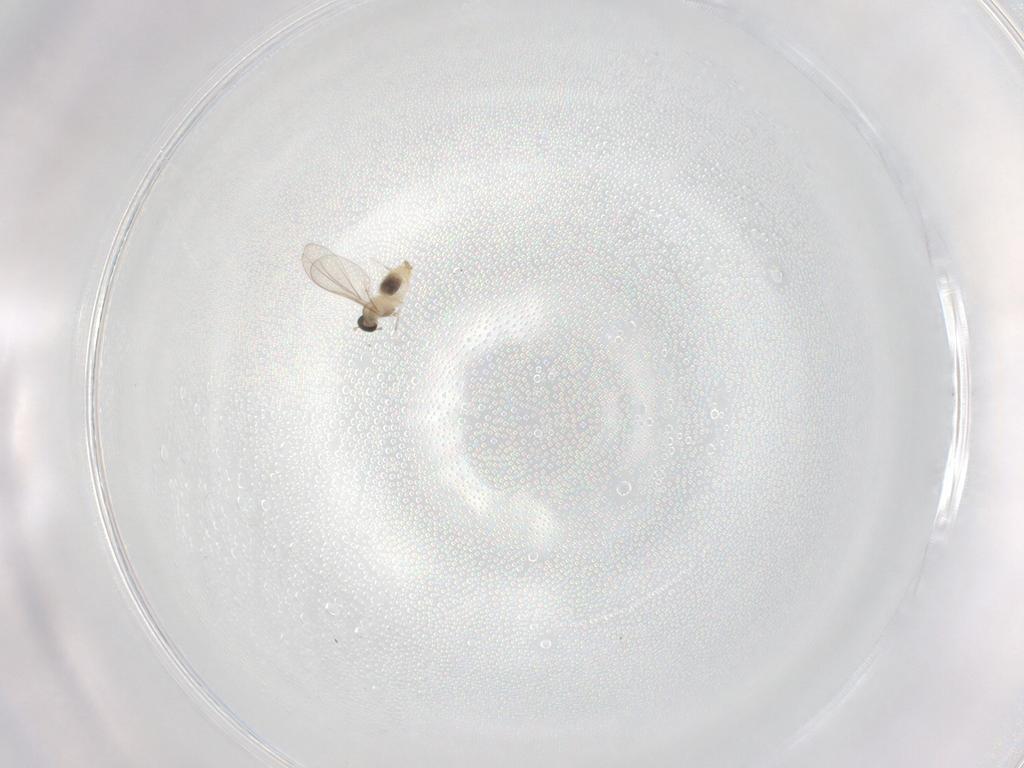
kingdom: Animalia
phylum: Arthropoda
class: Insecta
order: Diptera
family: Cecidomyiidae
